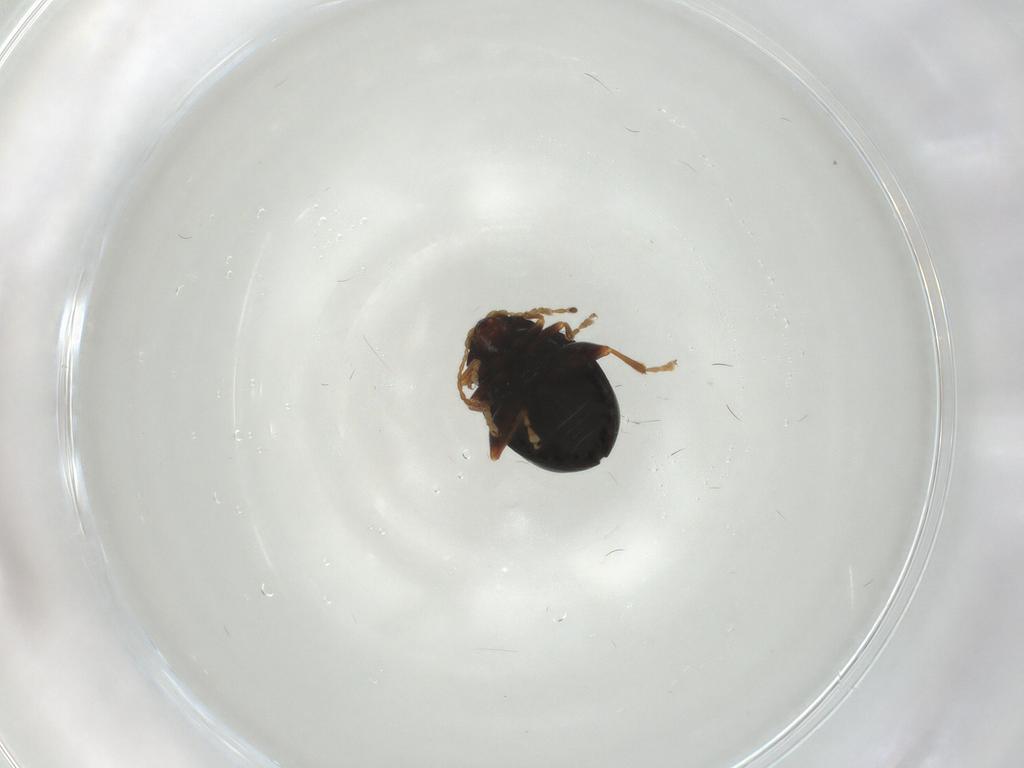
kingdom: Animalia
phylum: Arthropoda
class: Insecta
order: Coleoptera
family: Chrysomelidae
